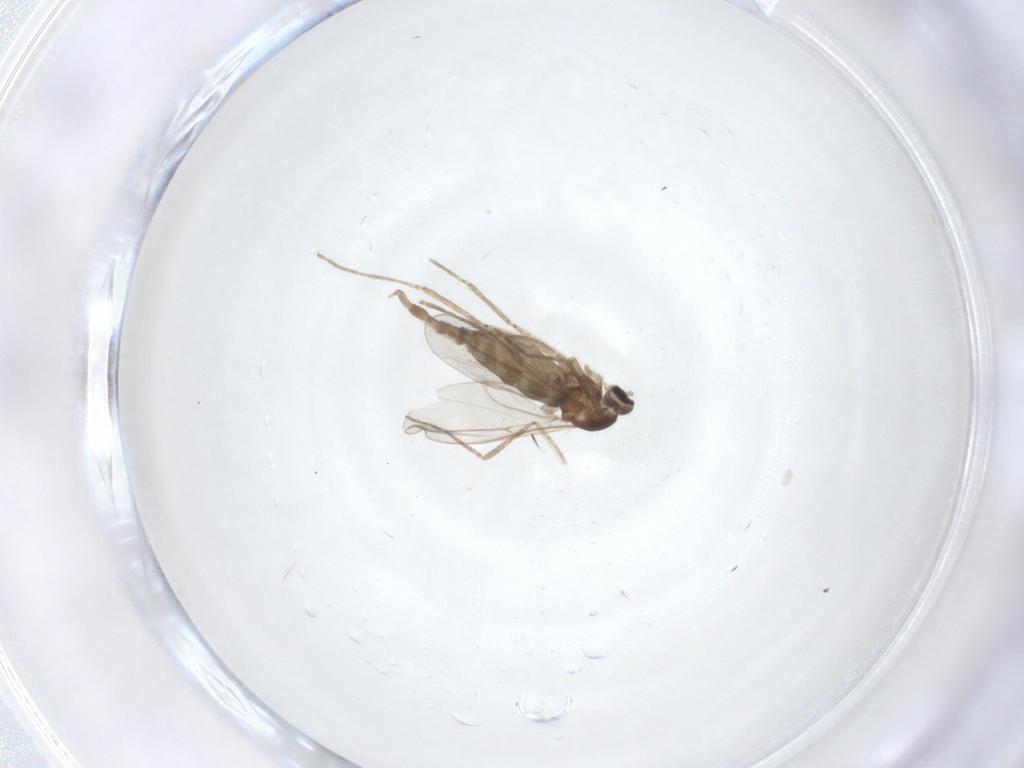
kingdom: Animalia
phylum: Arthropoda
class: Insecta
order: Diptera
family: Cecidomyiidae
